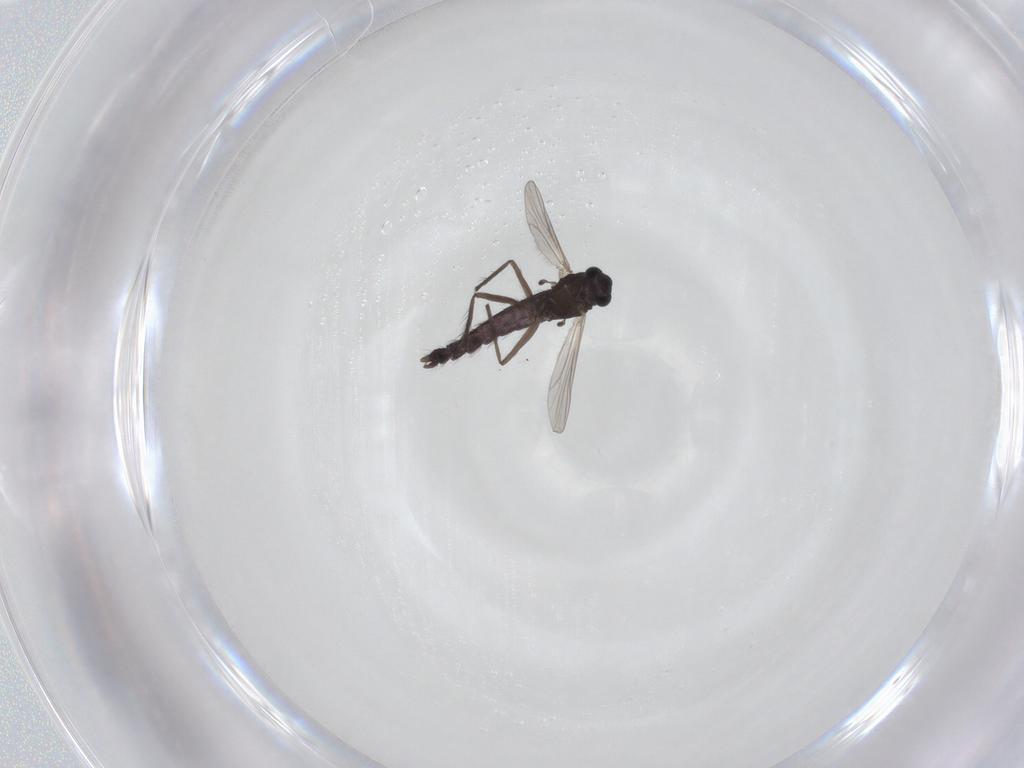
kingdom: Animalia
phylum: Arthropoda
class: Insecta
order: Diptera
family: Chironomidae
